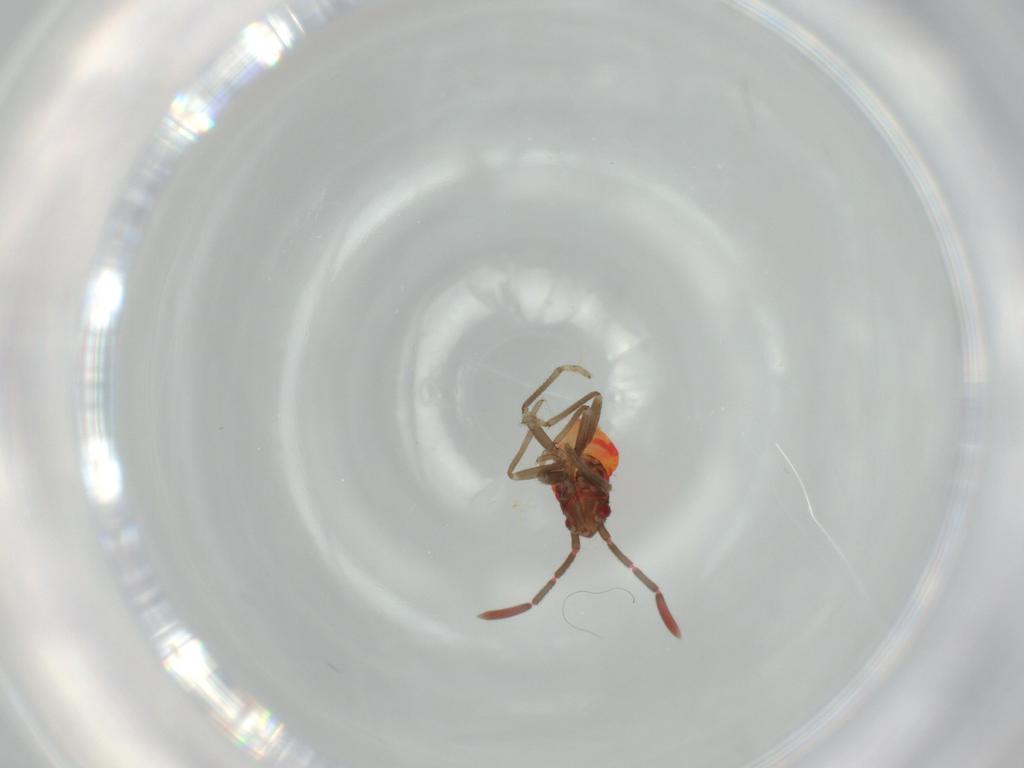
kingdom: Animalia
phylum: Arthropoda
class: Insecta
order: Hemiptera
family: Rhyparochromidae
